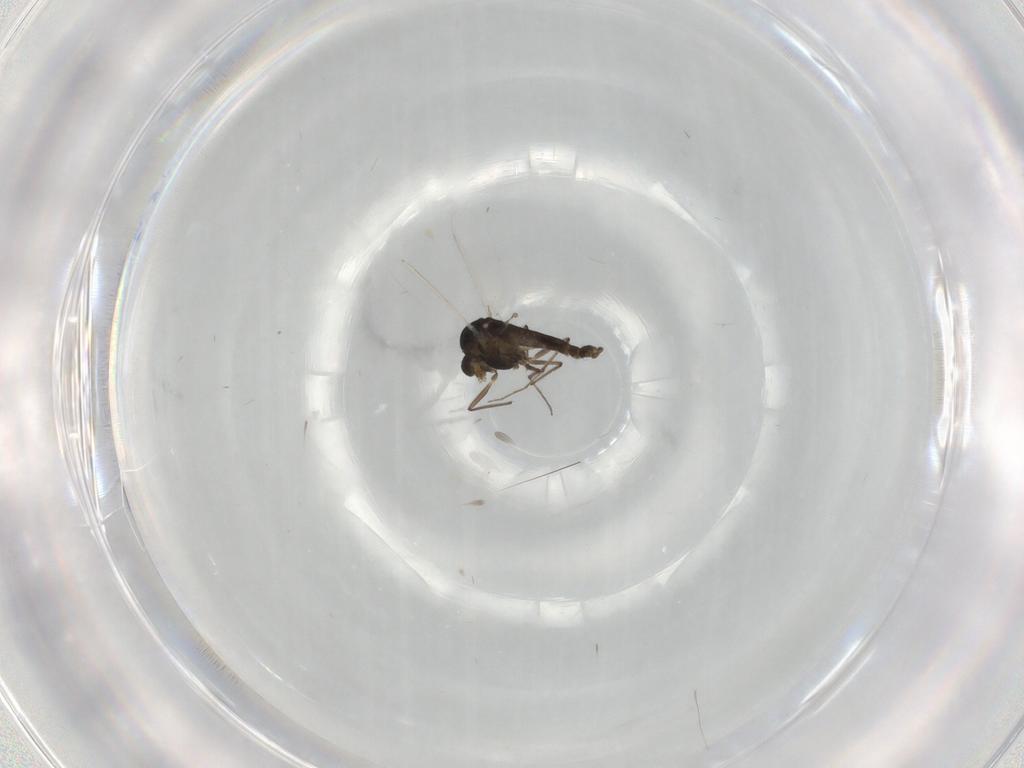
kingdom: Animalia
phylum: Arthropoda
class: Insecta
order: Diptera
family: Chironomidae
